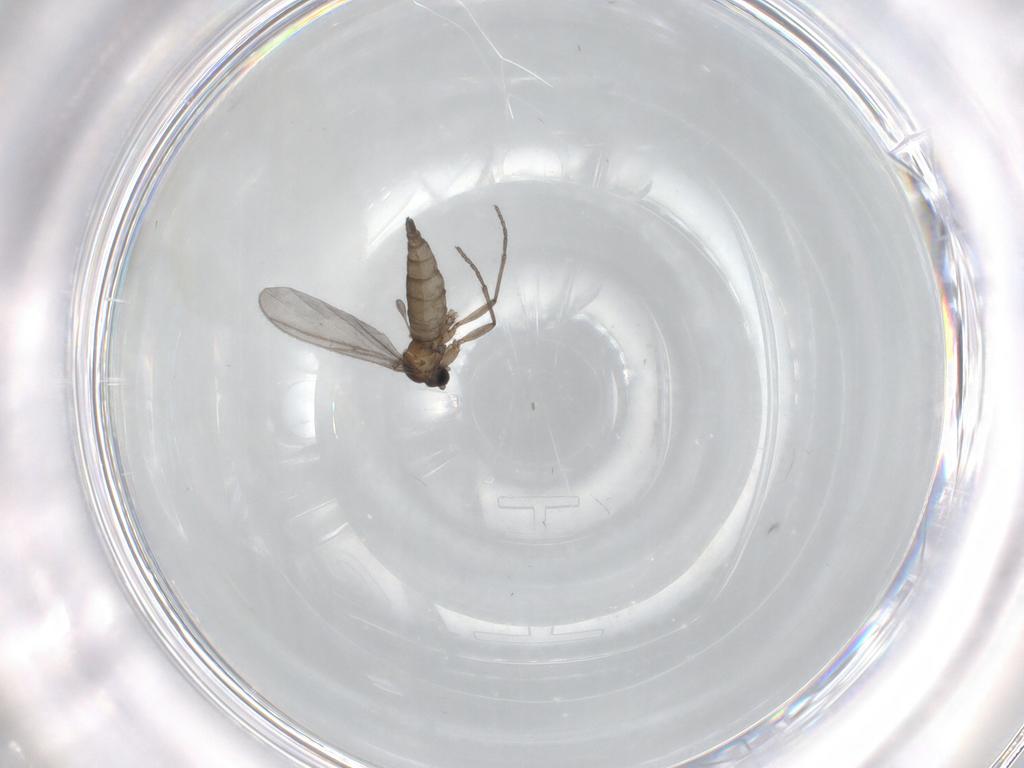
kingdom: Animalia
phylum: Arthropoda
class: Insecta
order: Diptera
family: Sciaridae
